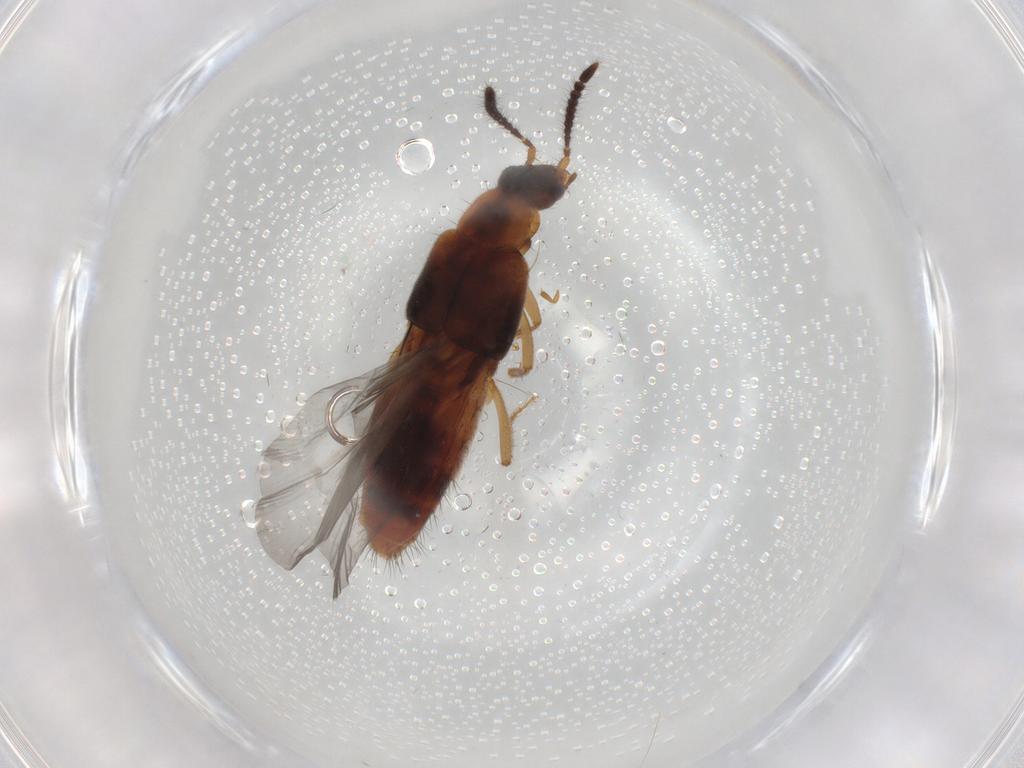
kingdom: Animalia
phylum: Arthropoda
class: Insecta
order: Coleoptera
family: Staphylinidae
